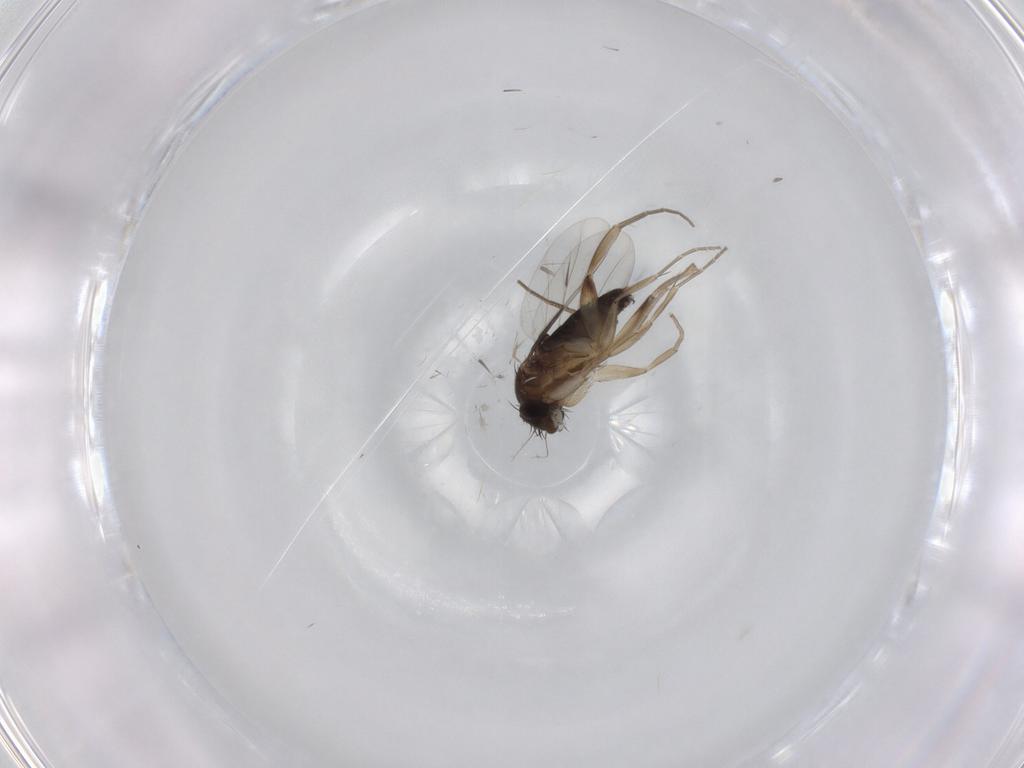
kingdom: Animalia
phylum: Arthropoda
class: Insecta
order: Diptera
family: Phoridae
